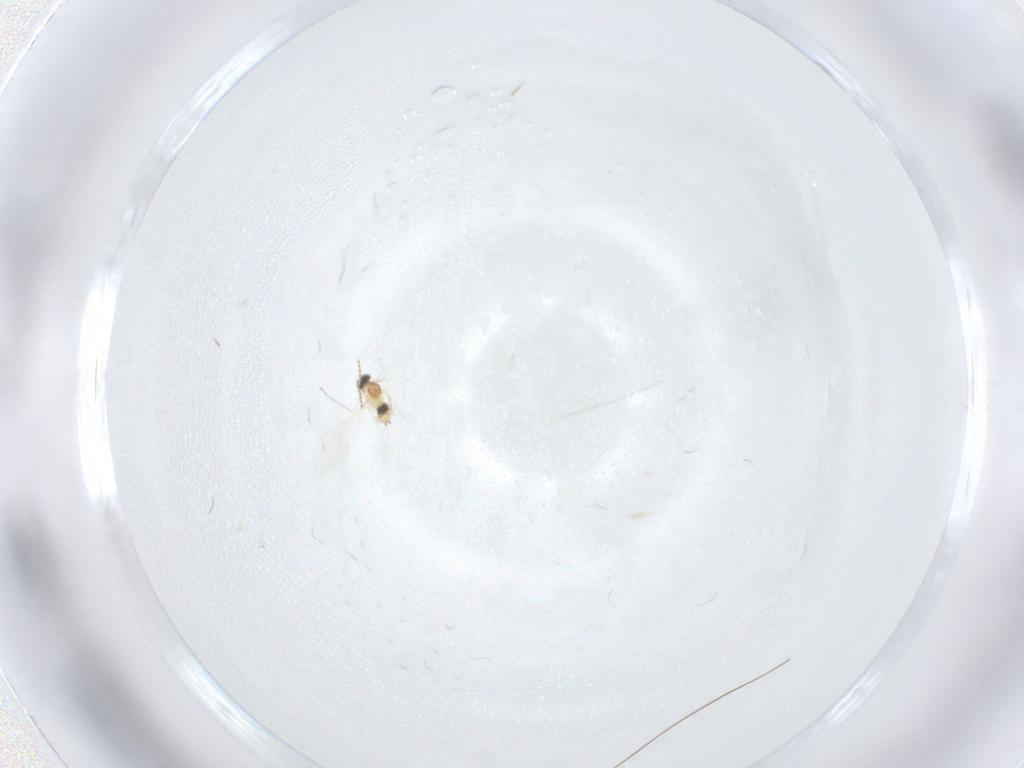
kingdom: Animalia
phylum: Arthropoda
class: Insecta
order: Diptera
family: Cecidomyiidae
